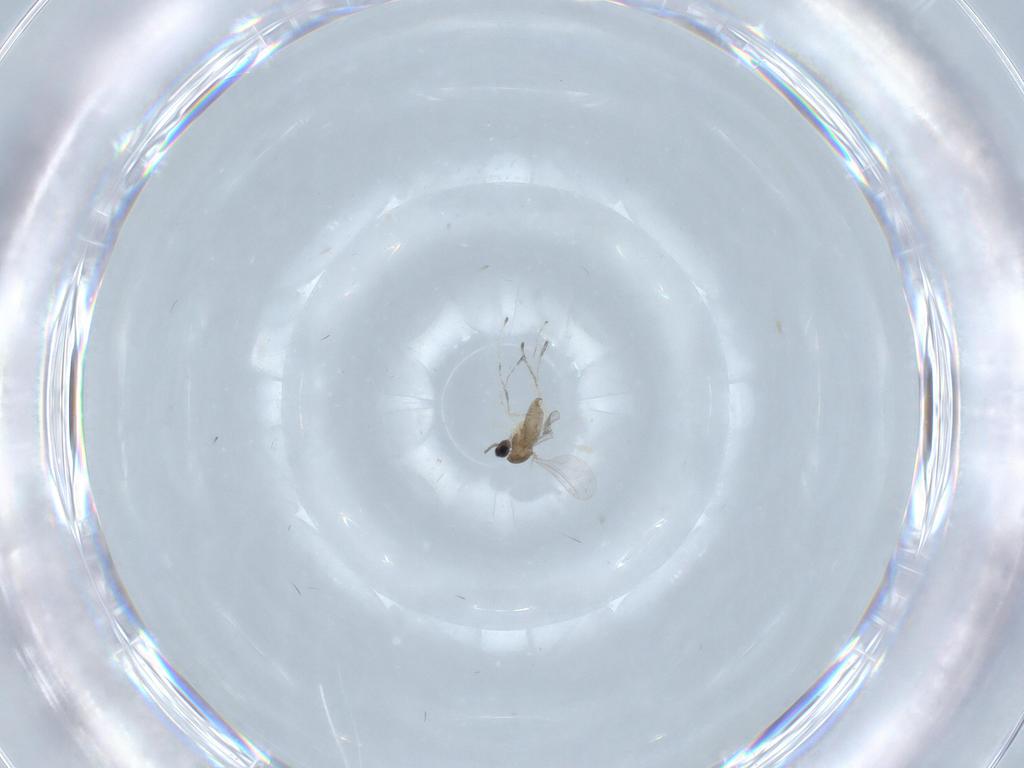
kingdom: Animalia
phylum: Arthropoda
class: Insecta
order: Diptera
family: Cecidomyiidae
